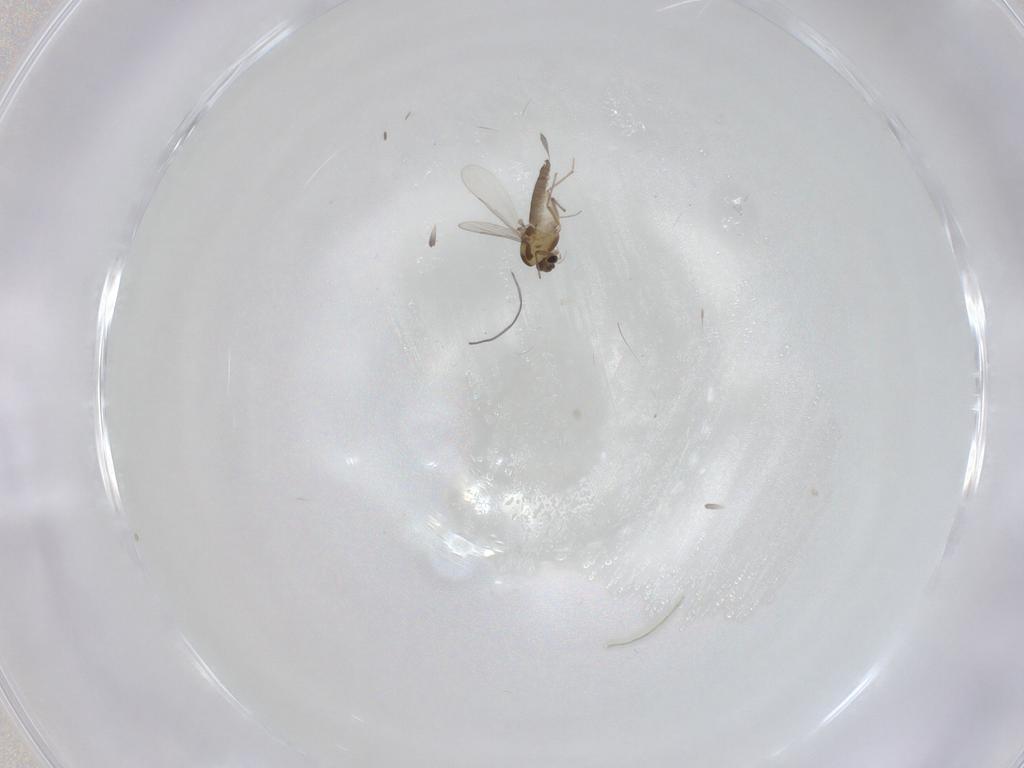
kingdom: Animalia
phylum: Arthropoda
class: Insecta
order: Diptera
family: Chironomidae
